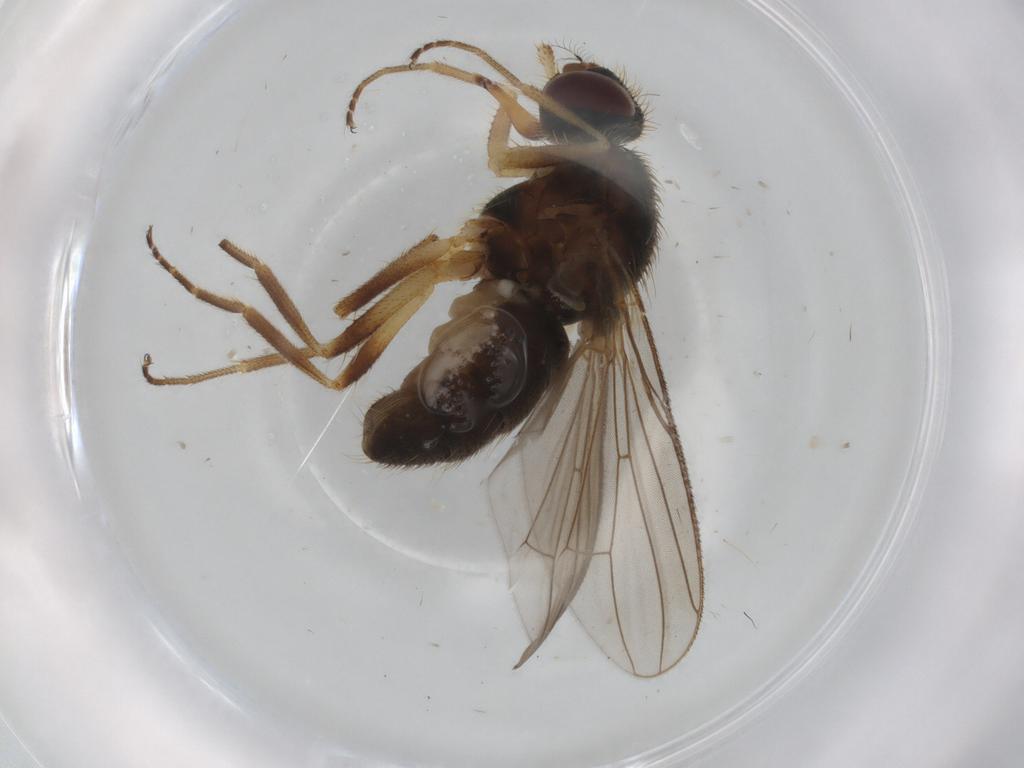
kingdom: Animalia
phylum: Arthropoda
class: Insecta
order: Diptera
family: Muscidae
